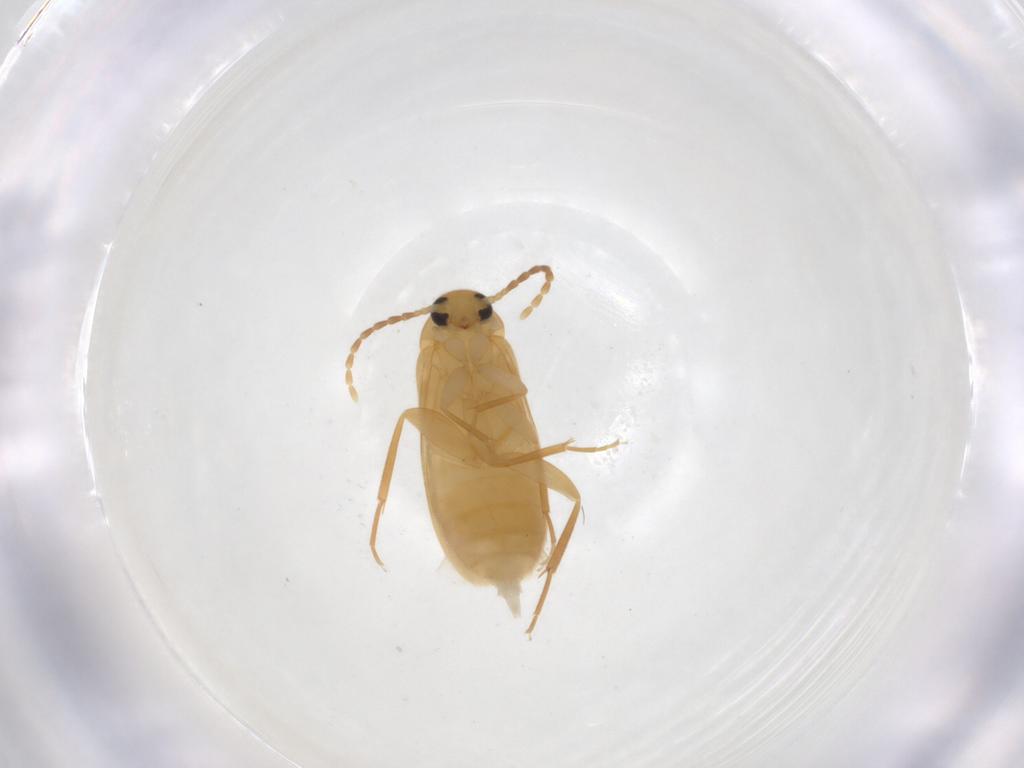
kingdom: Animalia
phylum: Arthropoda
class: Insecta
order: Coleoptera
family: Scraptiidae
